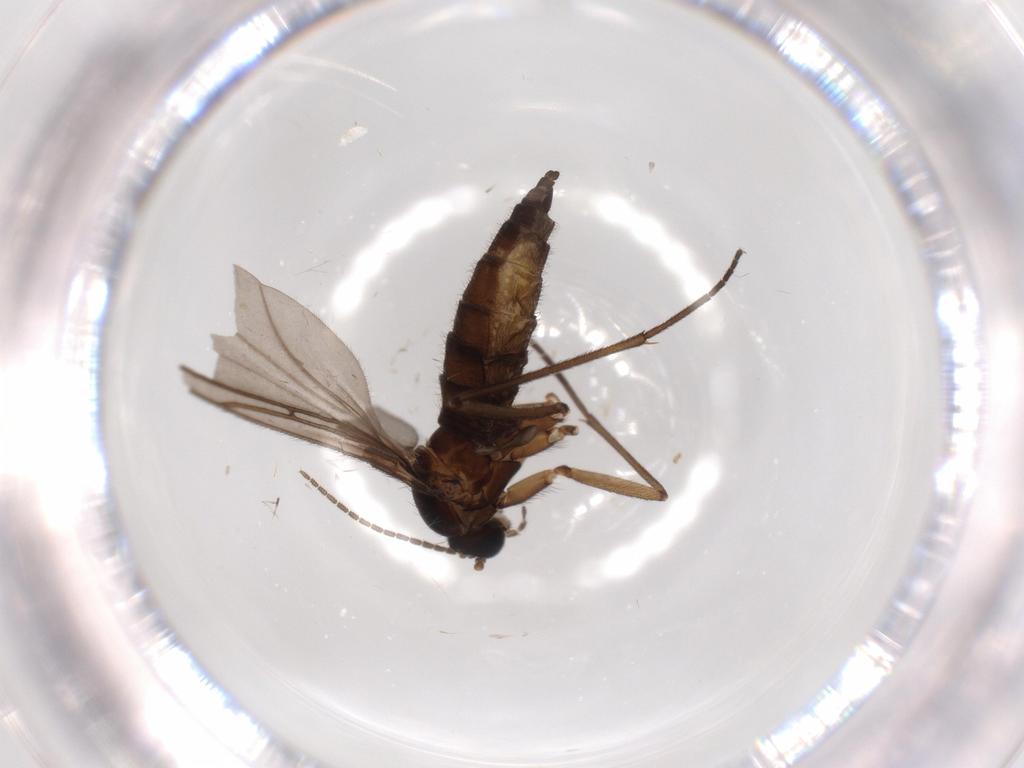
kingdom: Animalia
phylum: Arthropoda
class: Insecta
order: Diptera
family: Sciaridae
